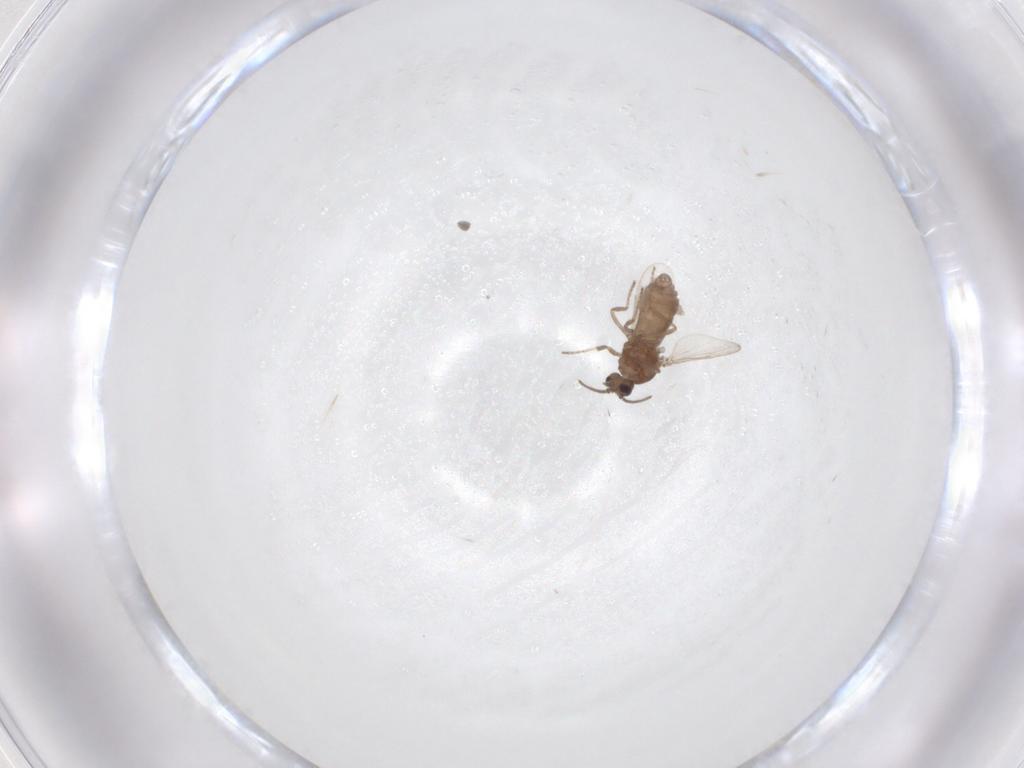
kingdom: Animalia
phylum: Arthropoda
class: Insecta
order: Diptera
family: Ceratopogonidae
